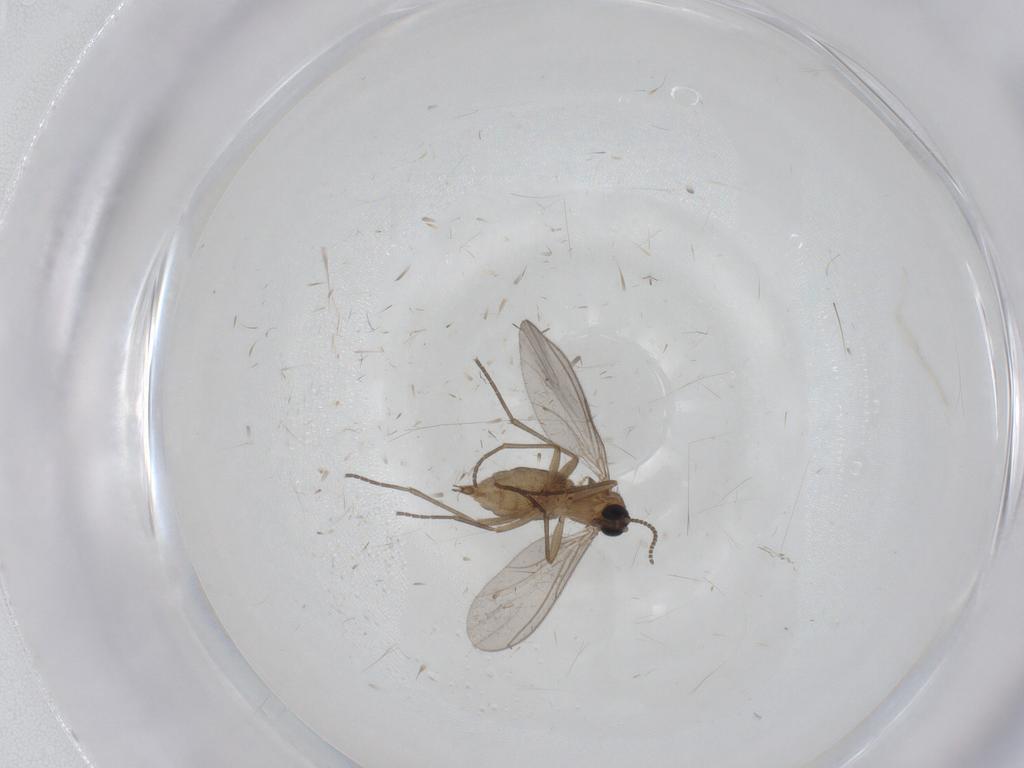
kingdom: Animalia
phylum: Arthropoda
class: Insecta
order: Diptera
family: Sciaridae
